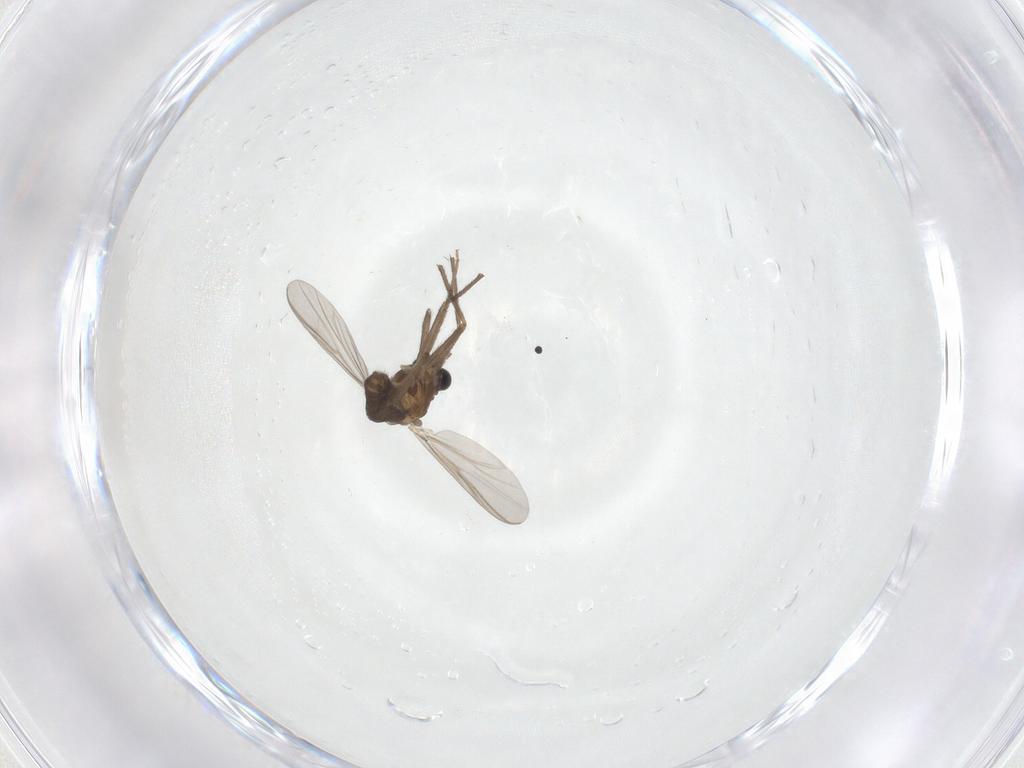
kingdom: Animalia
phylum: Arthropoda
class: Insecta
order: Diptera
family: Chironomidae
